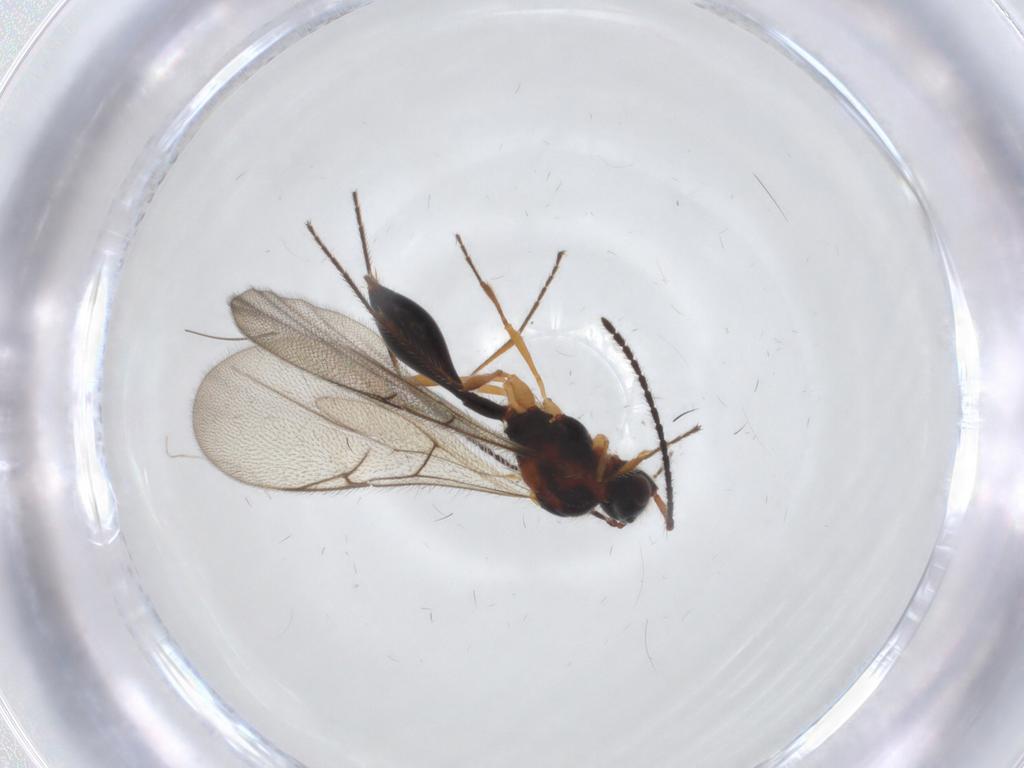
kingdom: Animalia
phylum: Arthropoda
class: Insecta
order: Hymenoptera
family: Diapriidae
